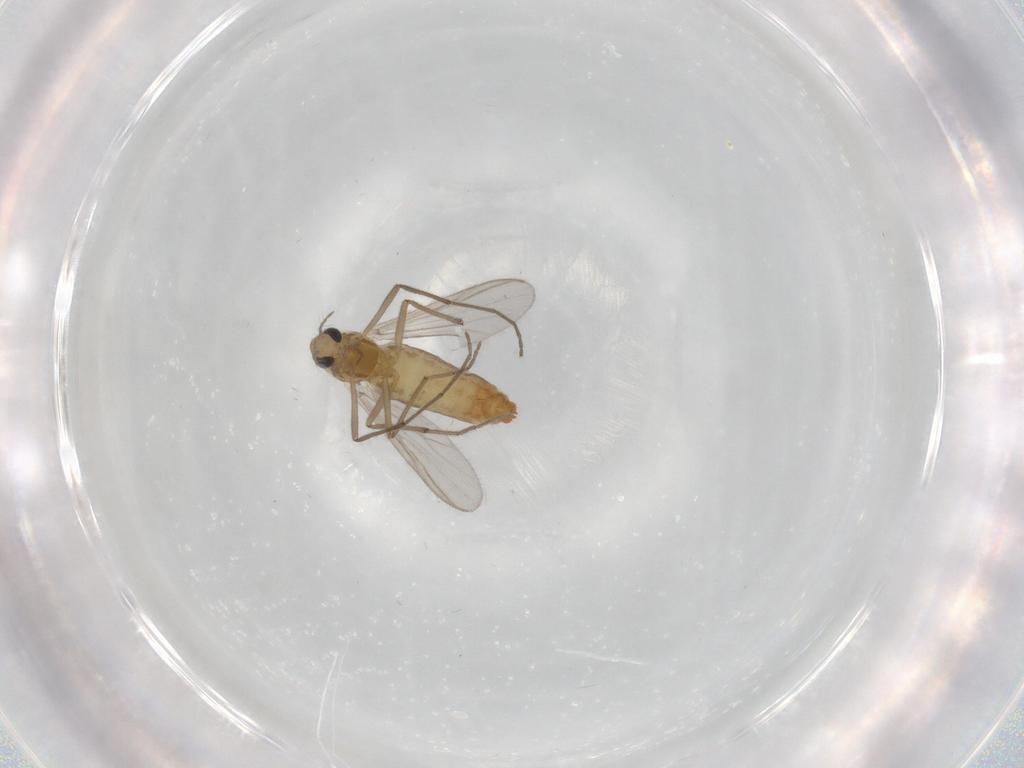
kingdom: Animalia
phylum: Arthropoda
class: Insecta
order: Diptera
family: Chironomidae
